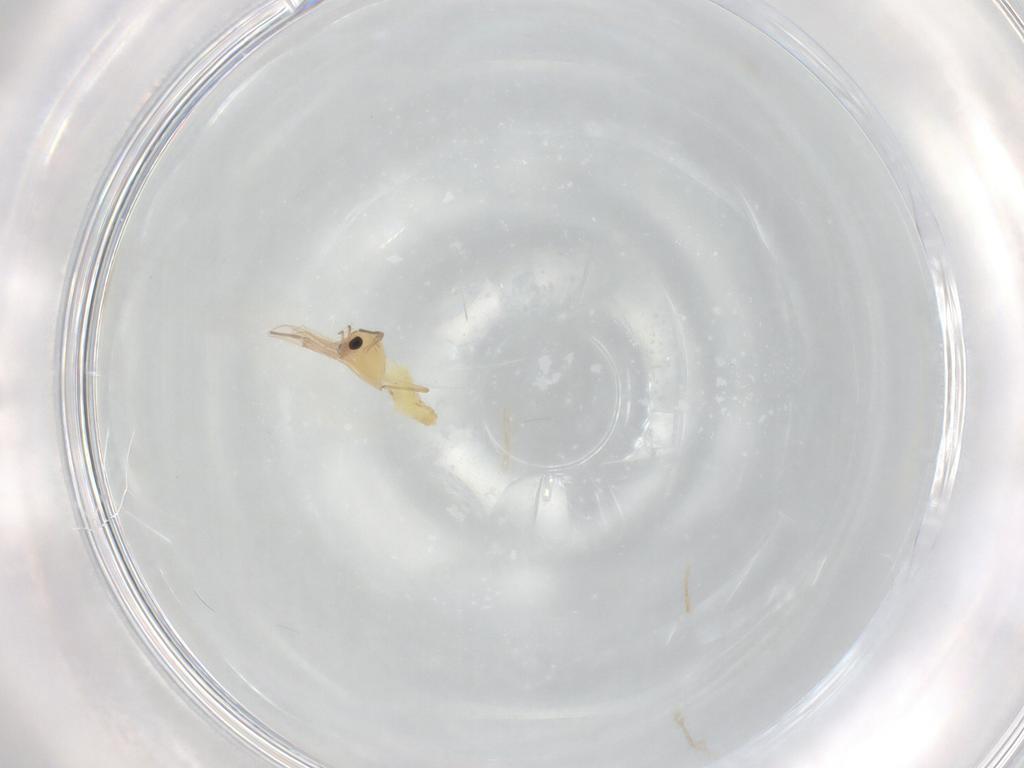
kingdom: Animalia
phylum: Arthropoda
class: Insecta
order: Diptera
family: Chironomidae
